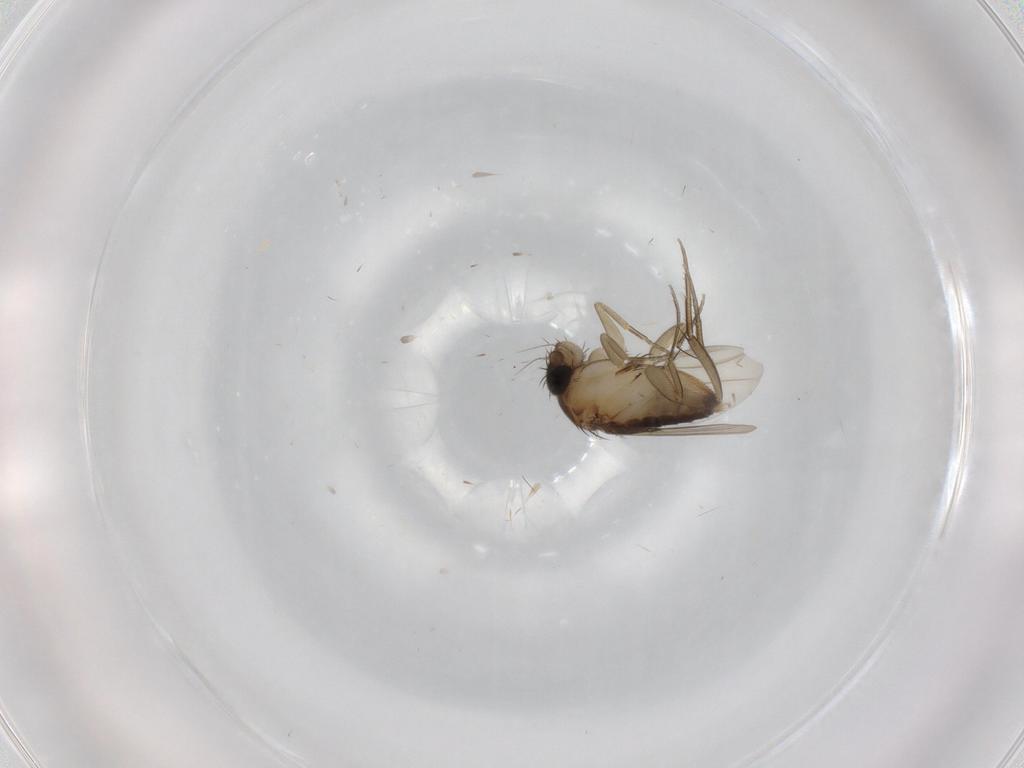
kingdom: Animalia
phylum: Arthropoda
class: Insecta
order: Diptera
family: Phoridae
